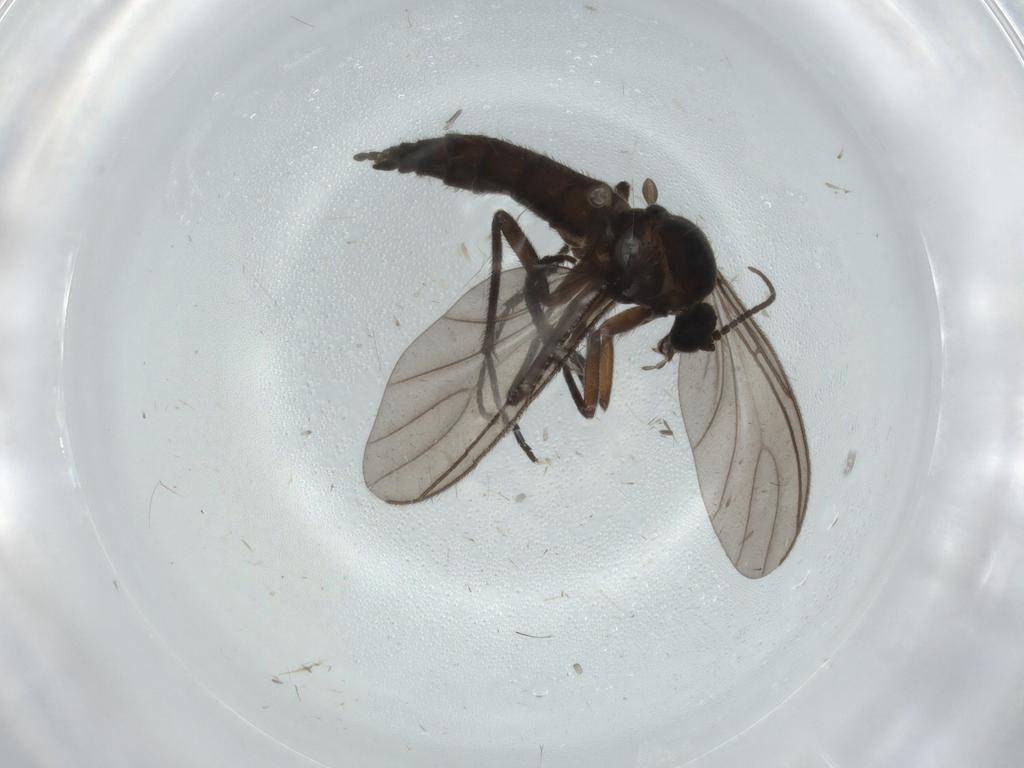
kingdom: Animalia
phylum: Arthropoda
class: Insecta
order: Diptera
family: Sciaridae
